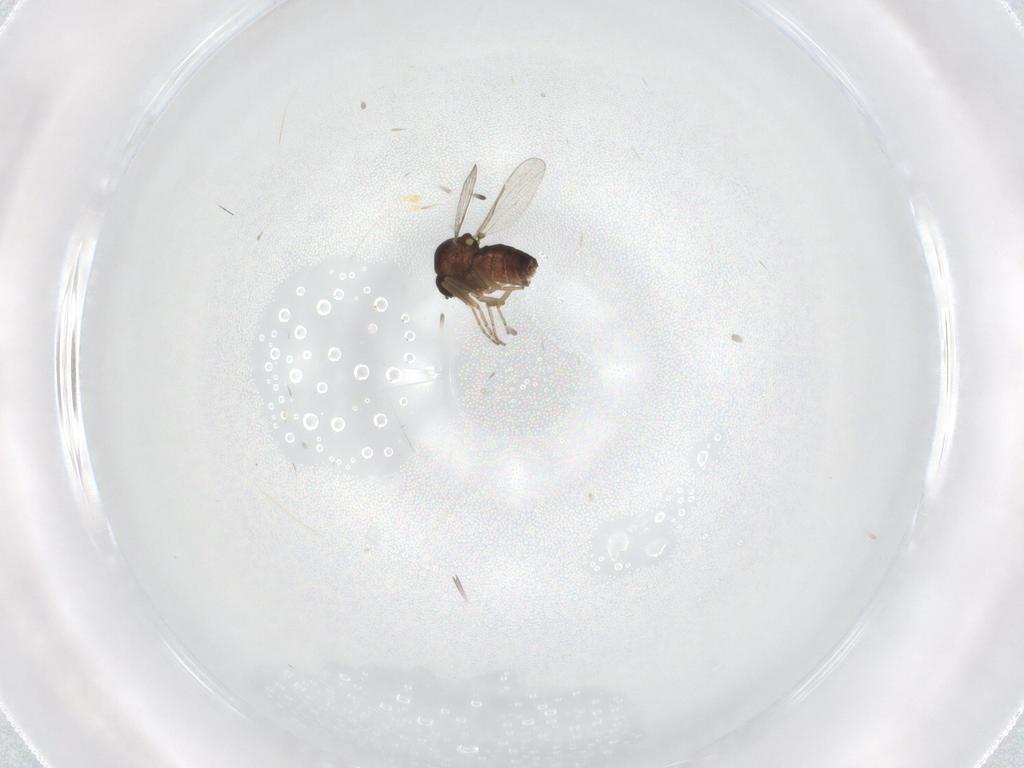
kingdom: Animalia
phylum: Arthropoda
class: Insecta
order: Diptera
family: Ceratopogonidae
